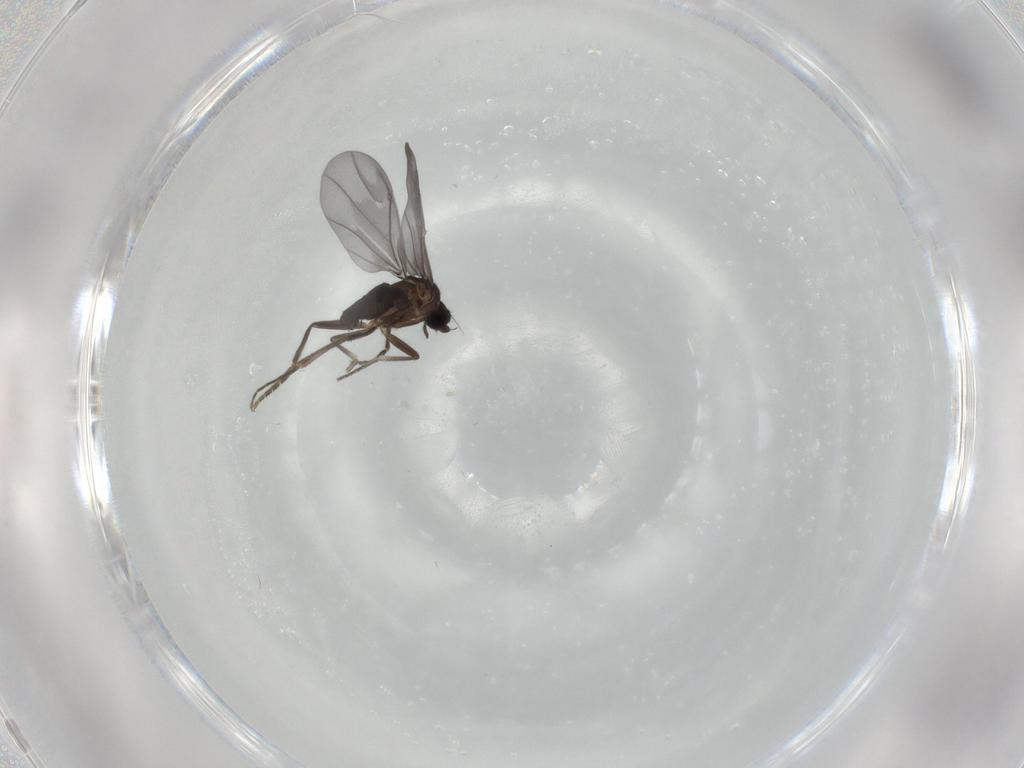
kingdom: Animalia
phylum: Arthropoda
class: Insecta
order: Diptera
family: Phoridae
